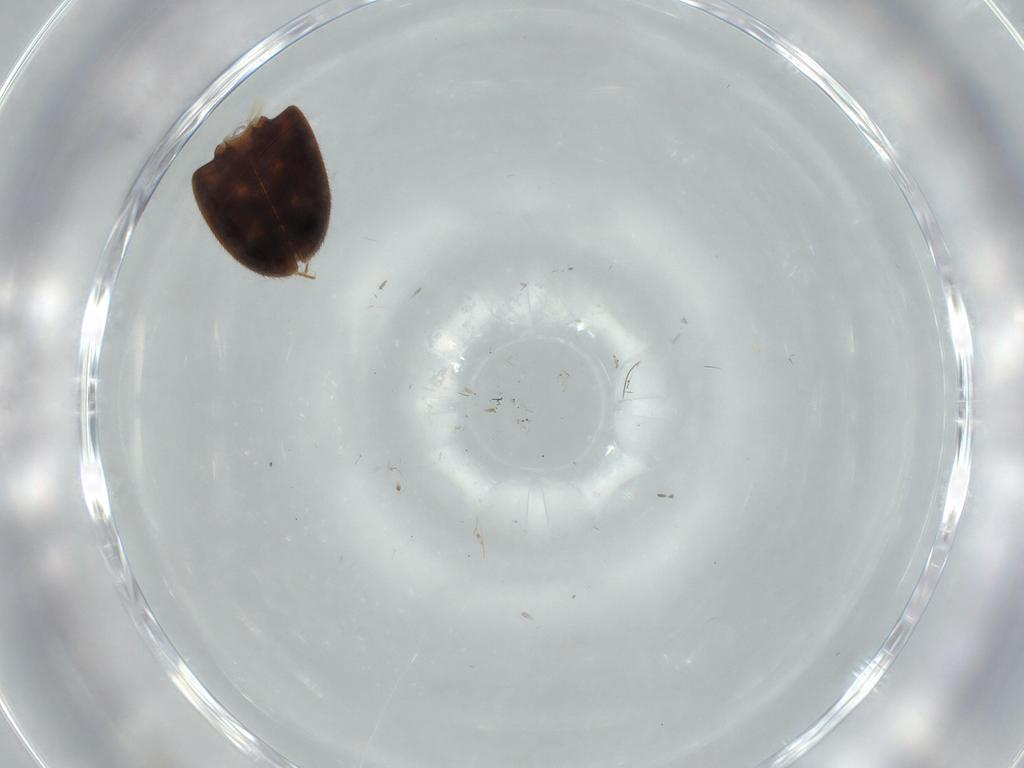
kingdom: Animalia
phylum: Arthropoda
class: Insecta
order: Coleoptera
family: Mycetophagidae
